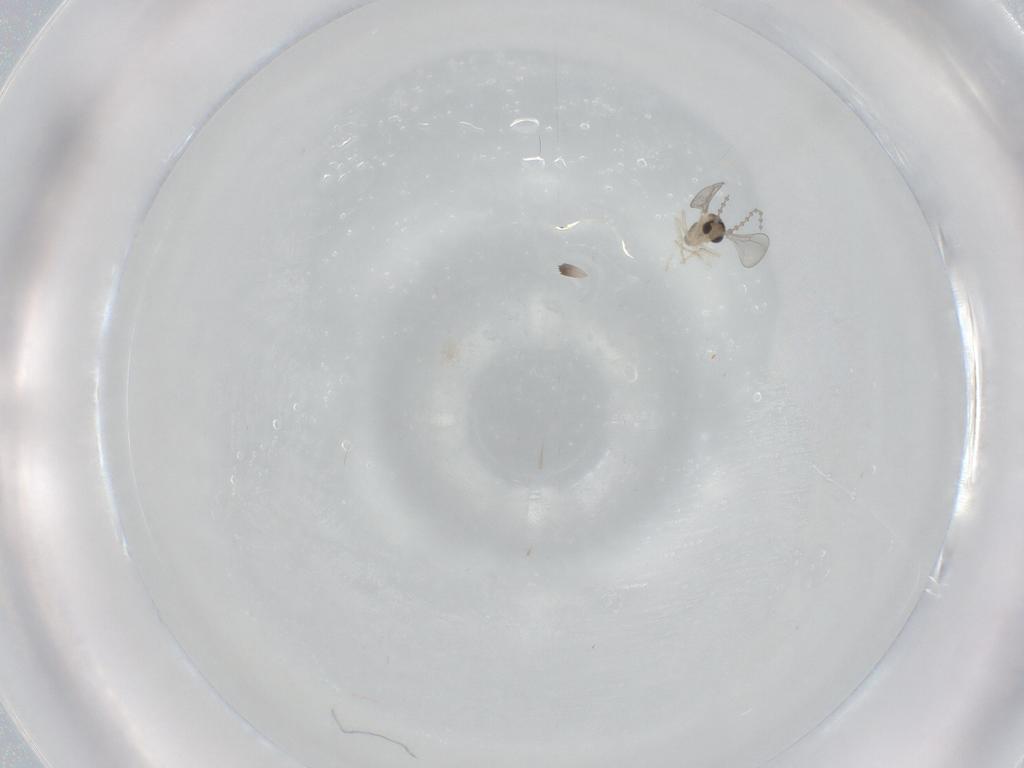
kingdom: Animalia
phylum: Arthropoda
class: Insecta
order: Diptera
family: Cecidomyiidae
